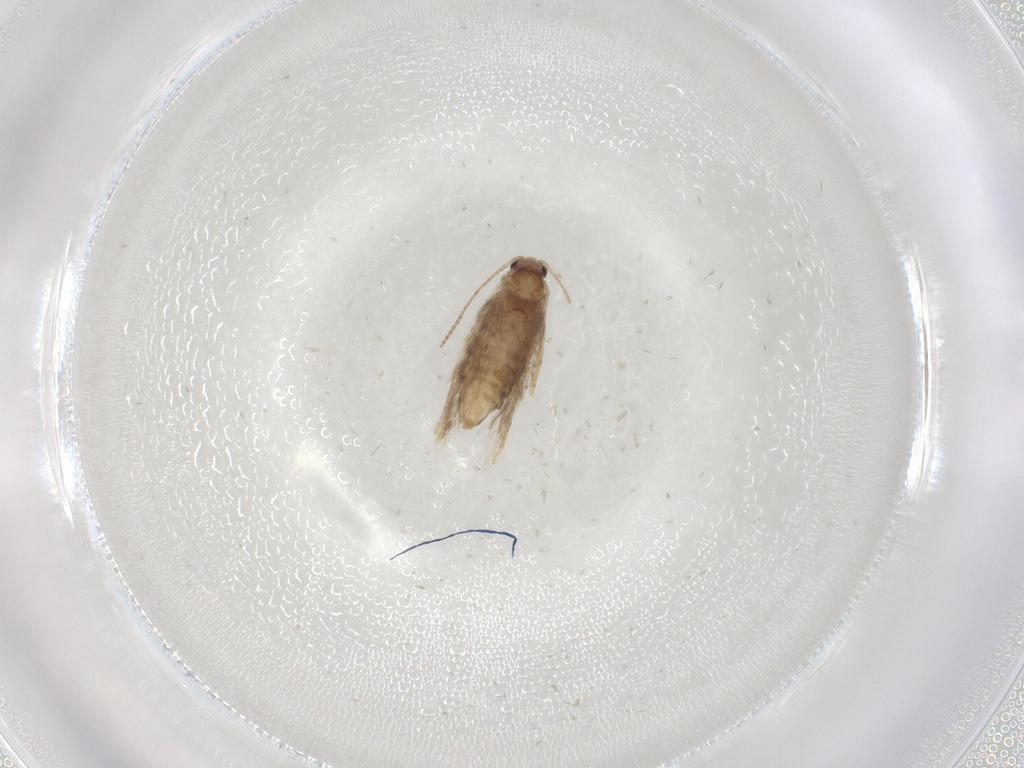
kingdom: Animalia
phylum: Arthropoda
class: Insecta
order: Lepidoptera
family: Nepticulidae
